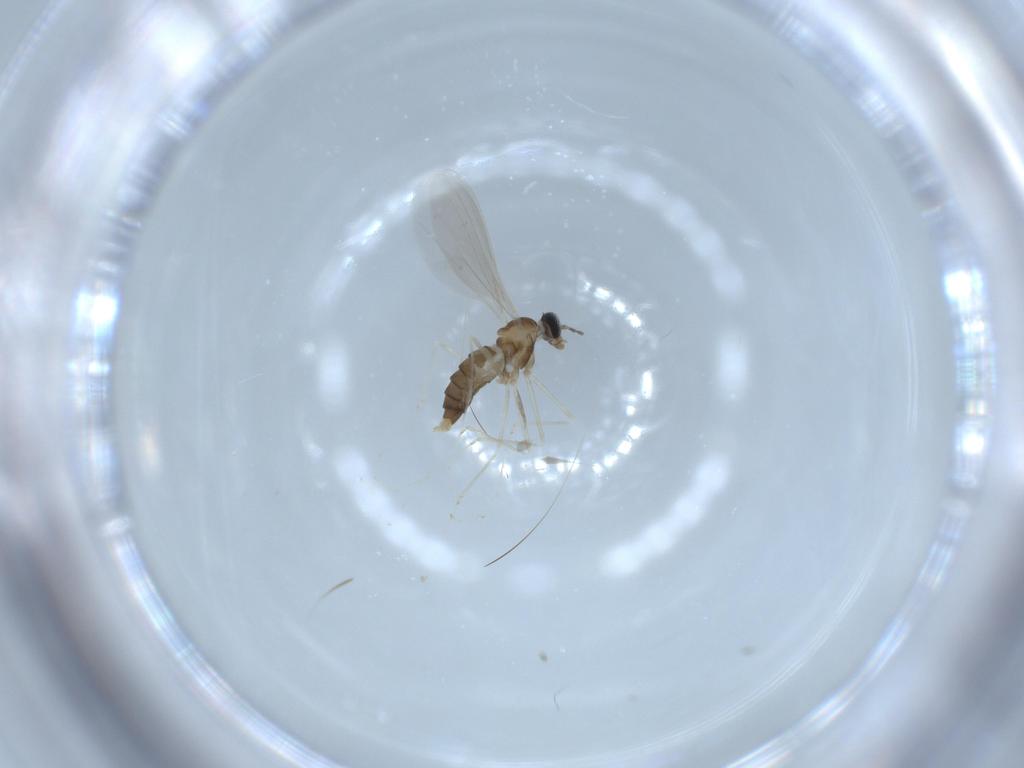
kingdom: Animalia
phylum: Arthropoda
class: Insecta
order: Diptera
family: Cecidomyiidae
